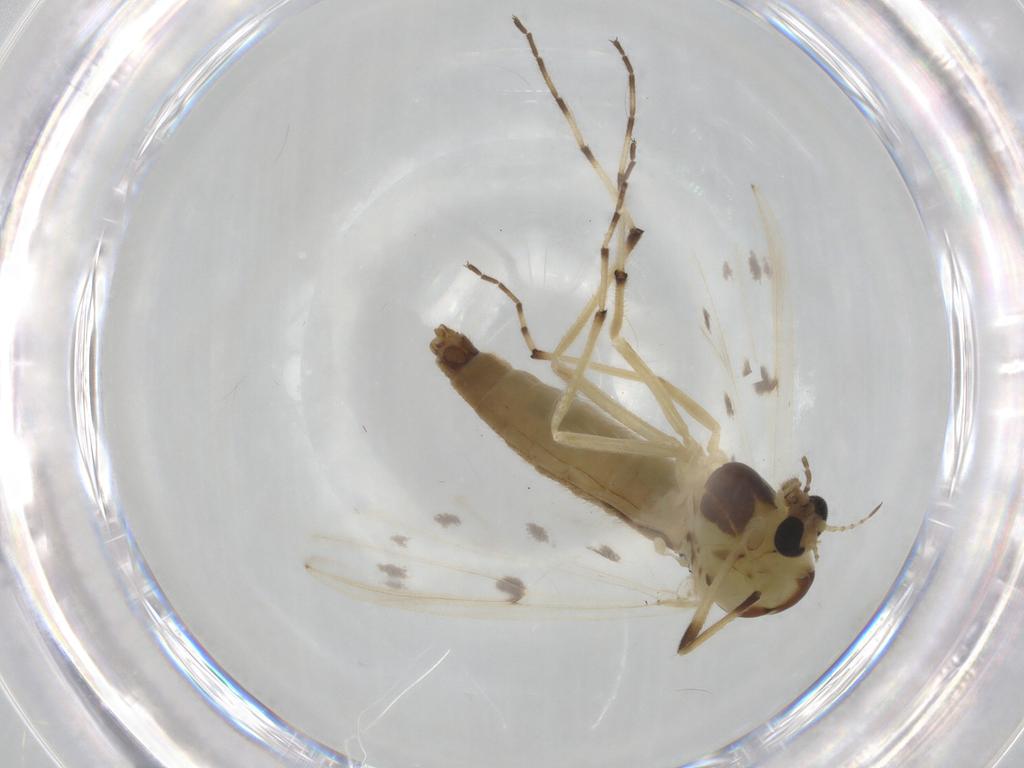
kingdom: Animalia
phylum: Arthropoda
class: Insecta
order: Diptera
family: Chironomidae
